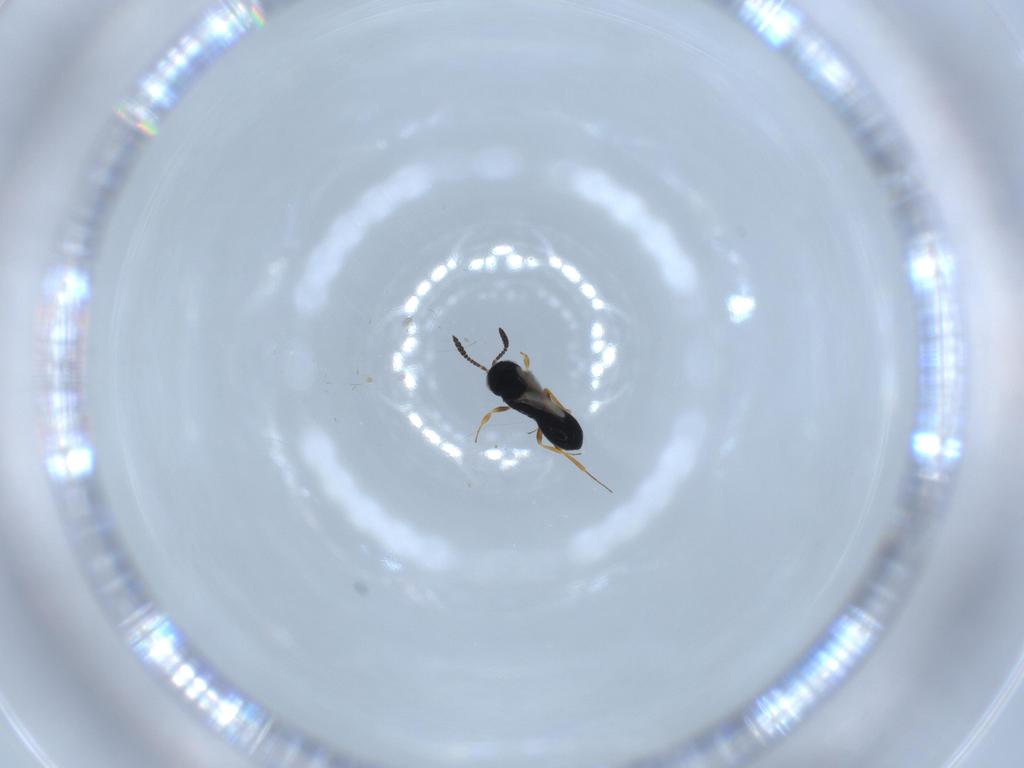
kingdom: Animalia
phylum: Arthropoda
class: Insecta
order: Hymenoptera
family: Scelionidae
